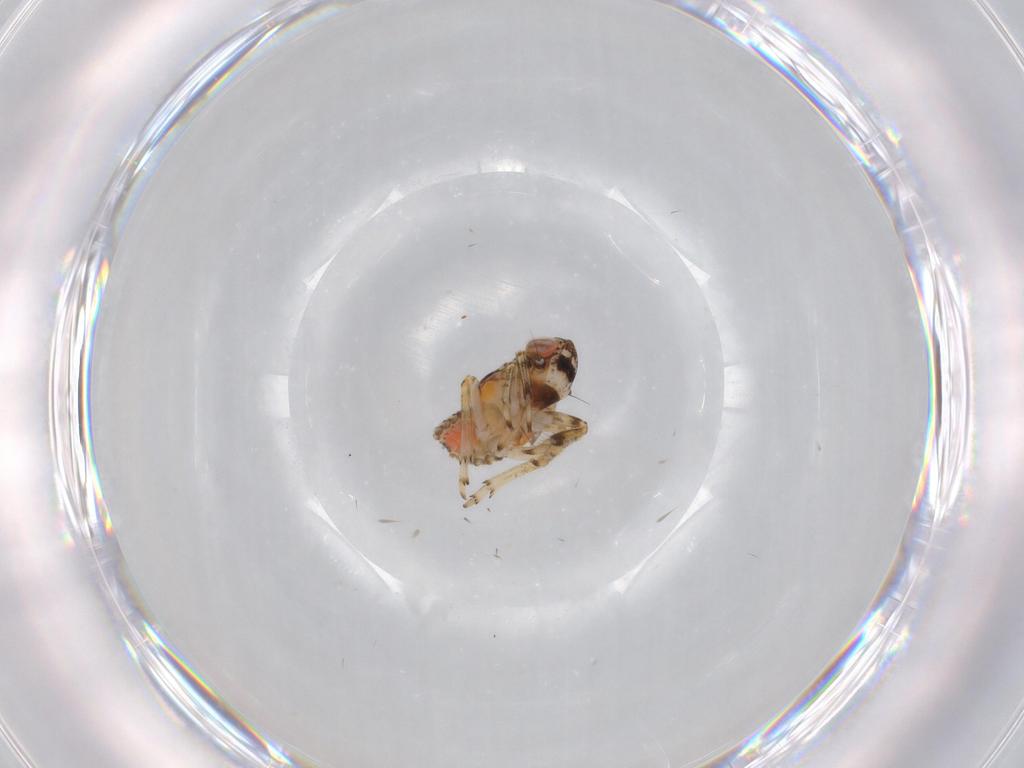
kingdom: Animalia
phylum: Arthropoda
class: Insecta
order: Hemiptera
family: Issidae
